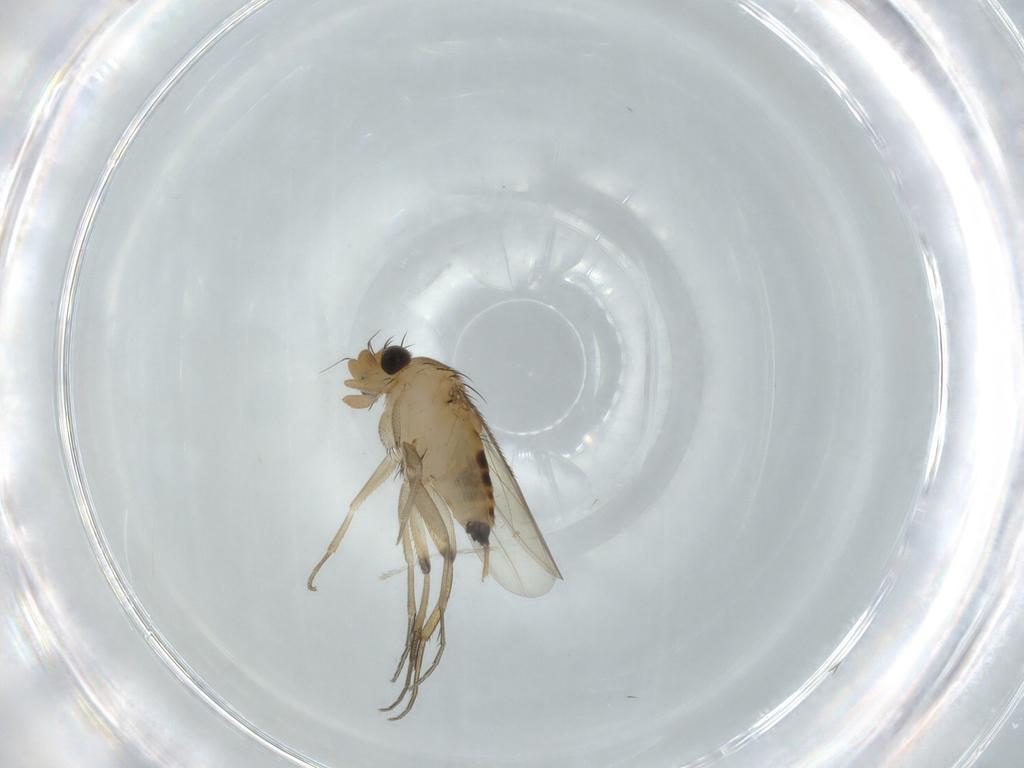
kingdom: Animalia
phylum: Arthropoda
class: Insecta
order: Diptera
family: Phoridae
